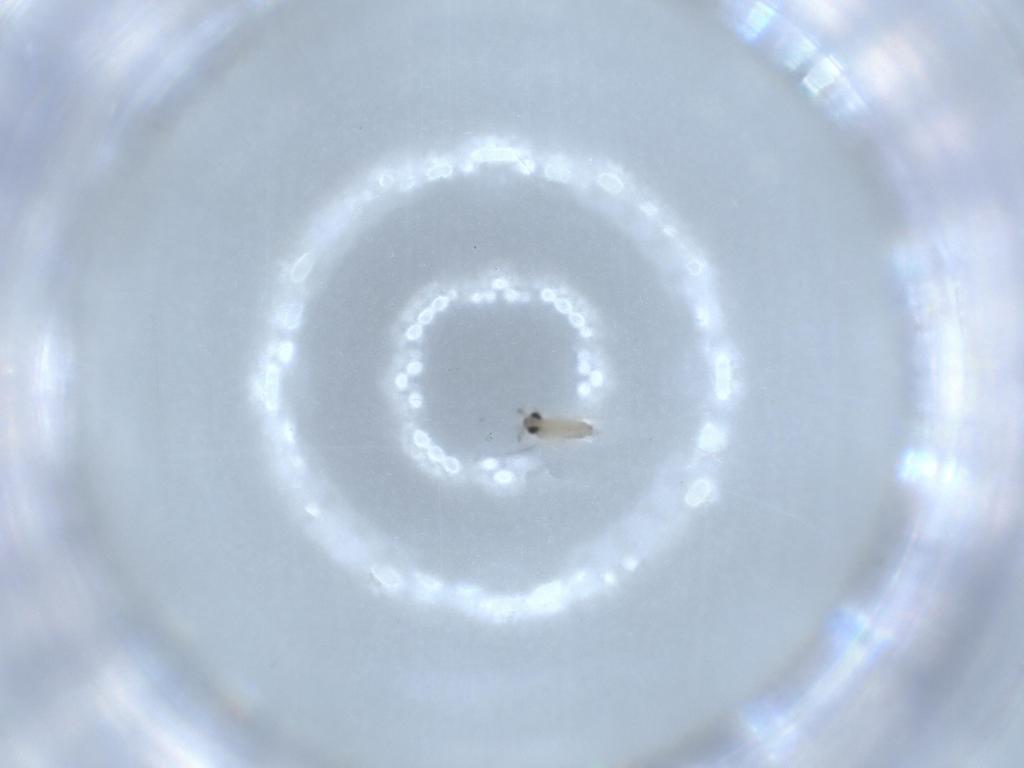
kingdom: Animalia
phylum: Arthropoda
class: Insecta
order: Diptera
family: Cecidomyiidae
